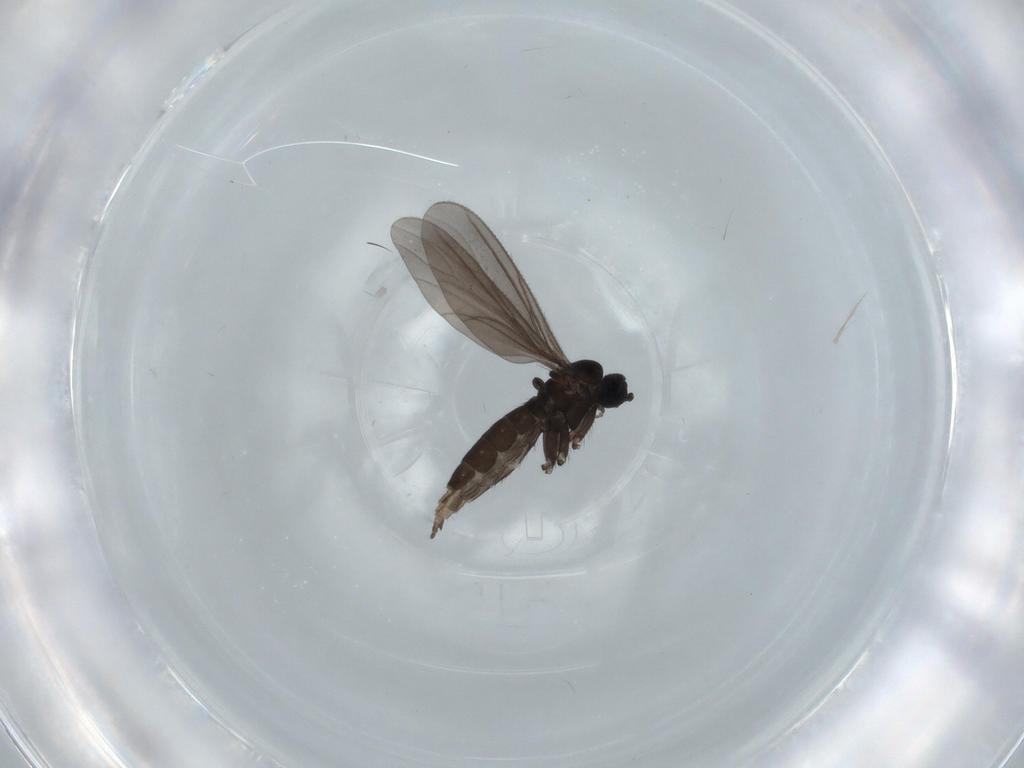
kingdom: Animalia
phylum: Arthropoda
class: Insecta
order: Diptera
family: Sciaridae
